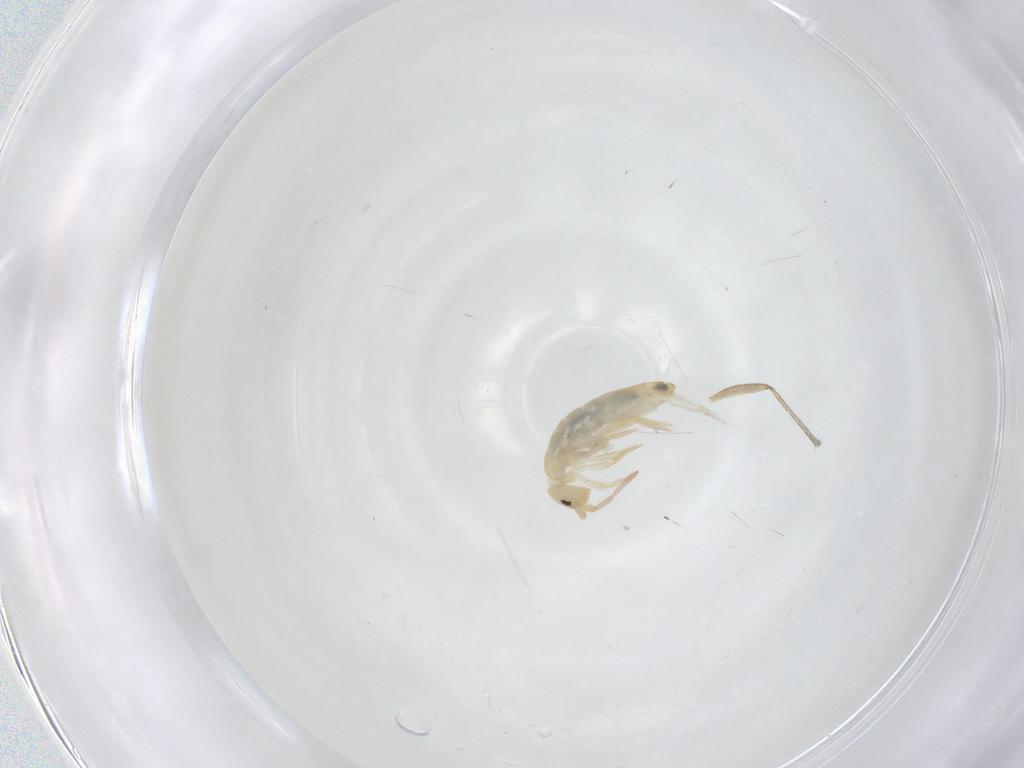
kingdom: Animalia
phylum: Arthropoda
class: Collembola
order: Entomobryomorpha
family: Entomobryidae
